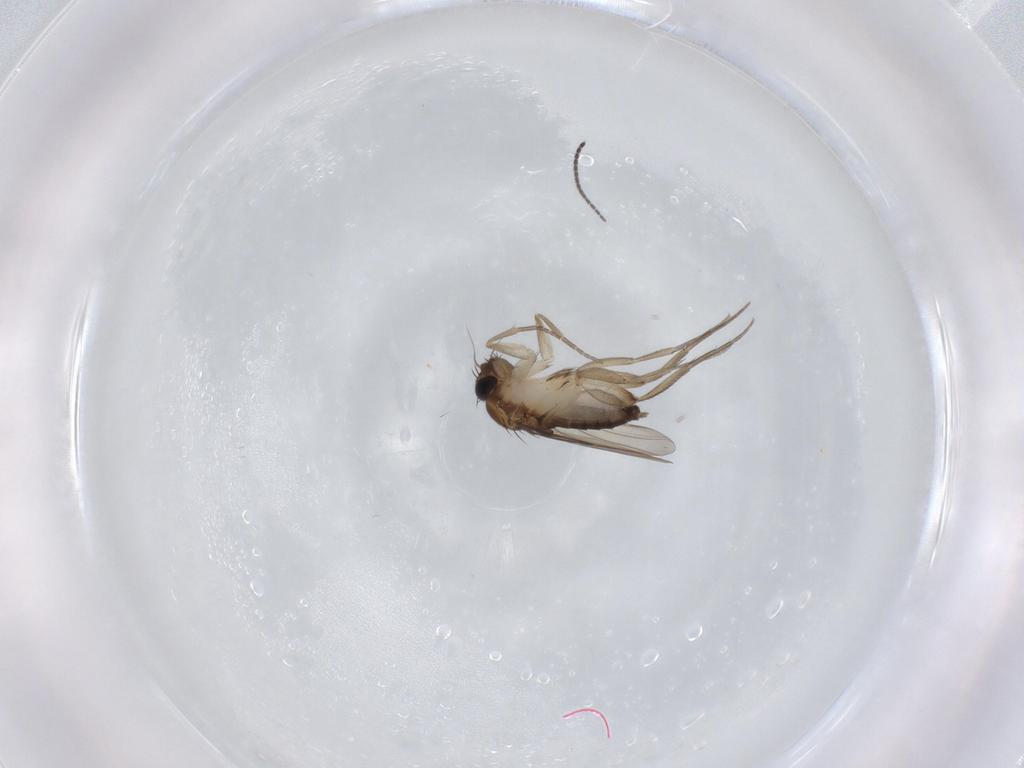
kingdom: Animalia
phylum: Arthropoda
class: Insecta
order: Diptera
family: Phoridae
